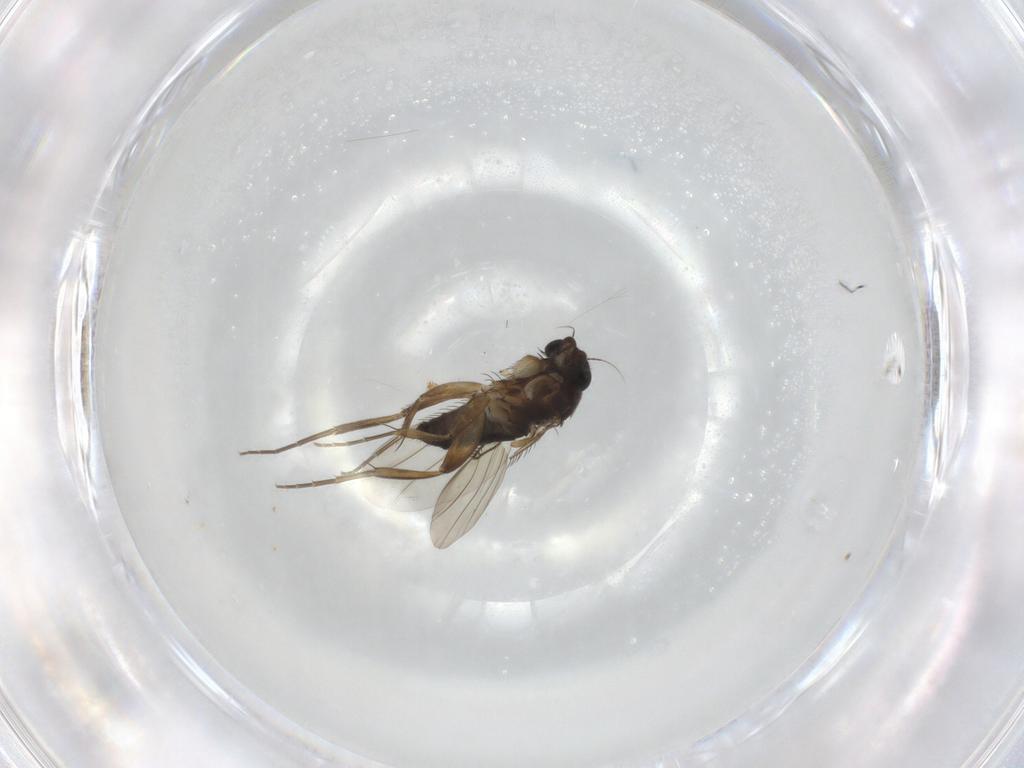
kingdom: Animalia
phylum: Arthropoda
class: Insecta
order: Diptera
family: Phoridae
